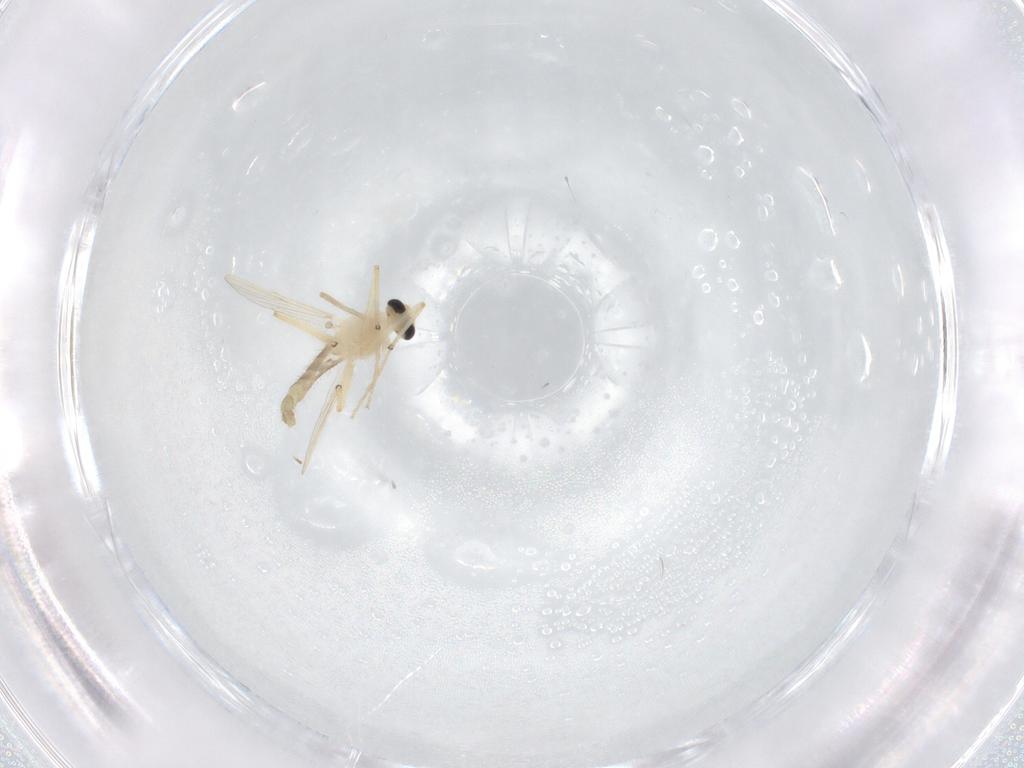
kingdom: Animalia
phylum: Arthropoda
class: Insecta
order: Diptera
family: Chironomidae
